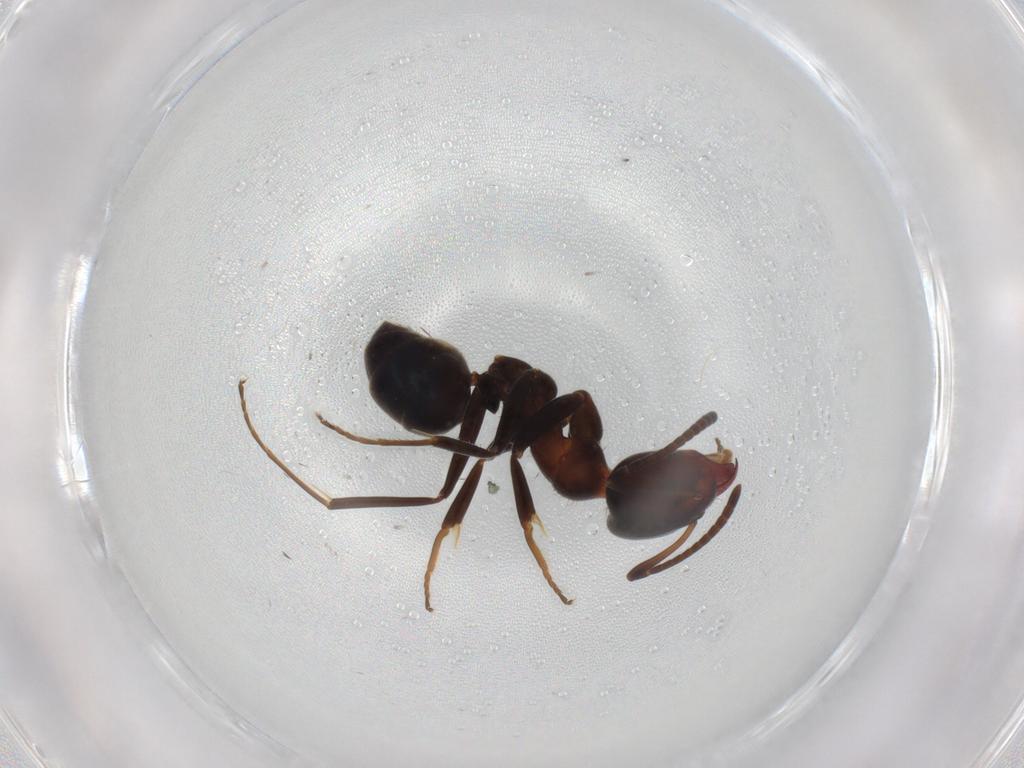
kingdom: Animalia
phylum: Arthropoda
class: Insecta
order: Hymenoptera
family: Formicidae
